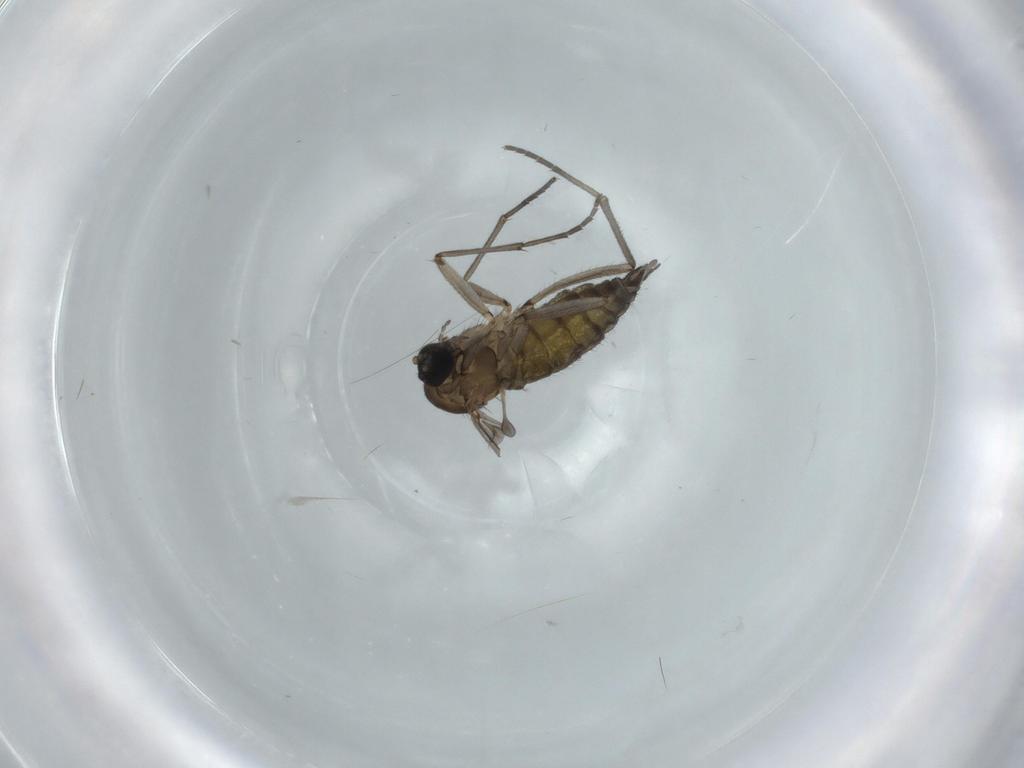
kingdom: Animalia
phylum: Arthropoda
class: Insecta
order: Diptera
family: Sciaridae
